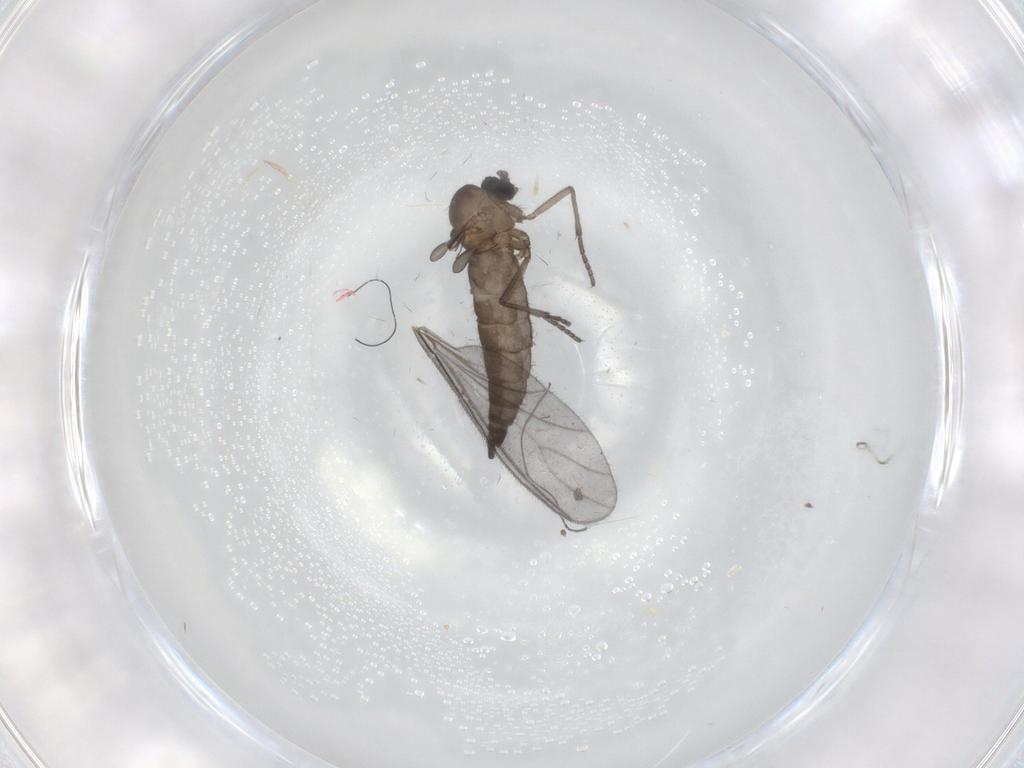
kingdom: Animalia
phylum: Arthropoda
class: Insecta
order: Diptera
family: Sciaridae
